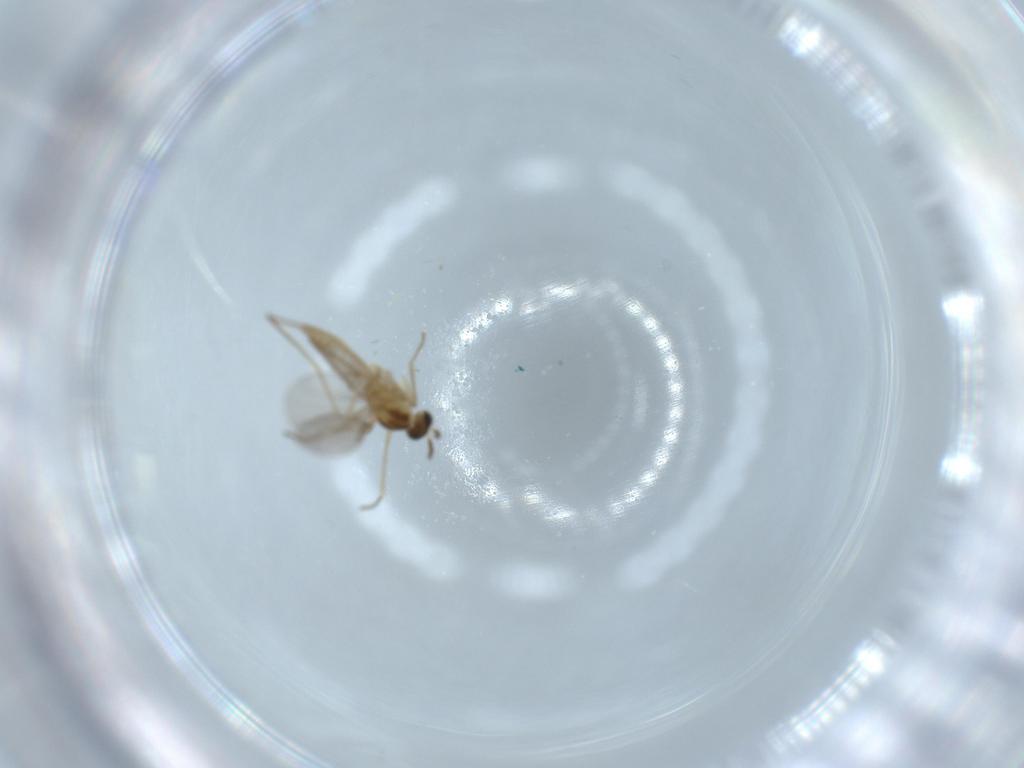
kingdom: Animalia
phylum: Arthropoda
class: Insecta
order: Diptera
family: Cecidomyiidae
